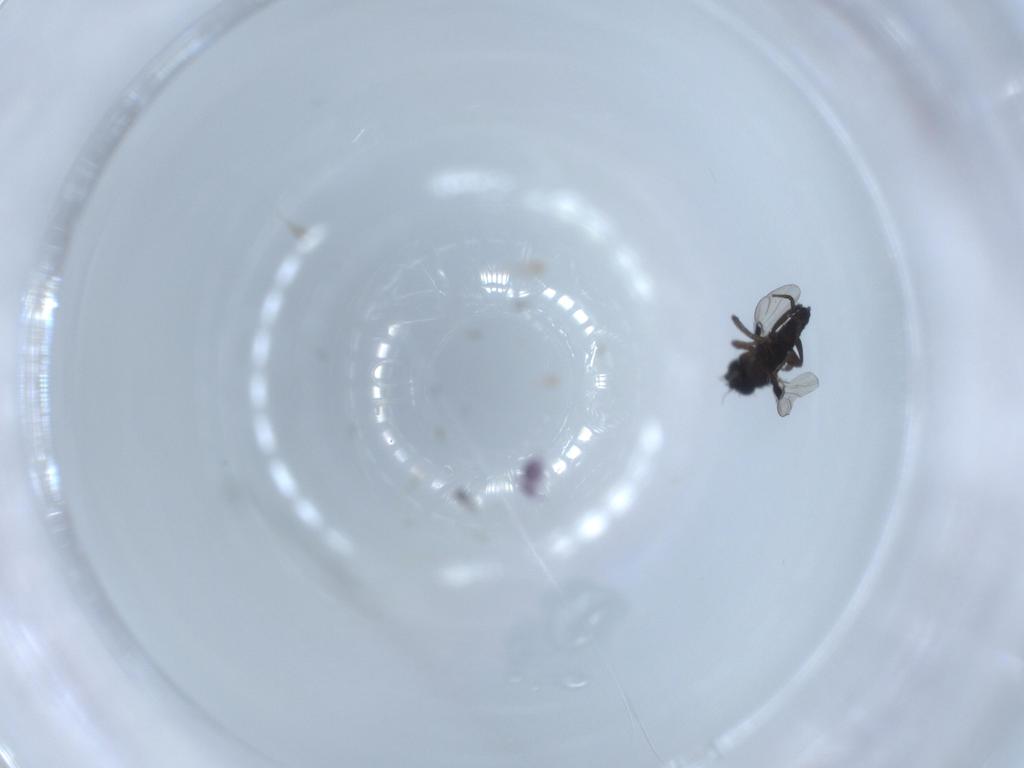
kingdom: Animalia
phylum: Arthropoda
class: Insecta
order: Diptera
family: Phoridae
